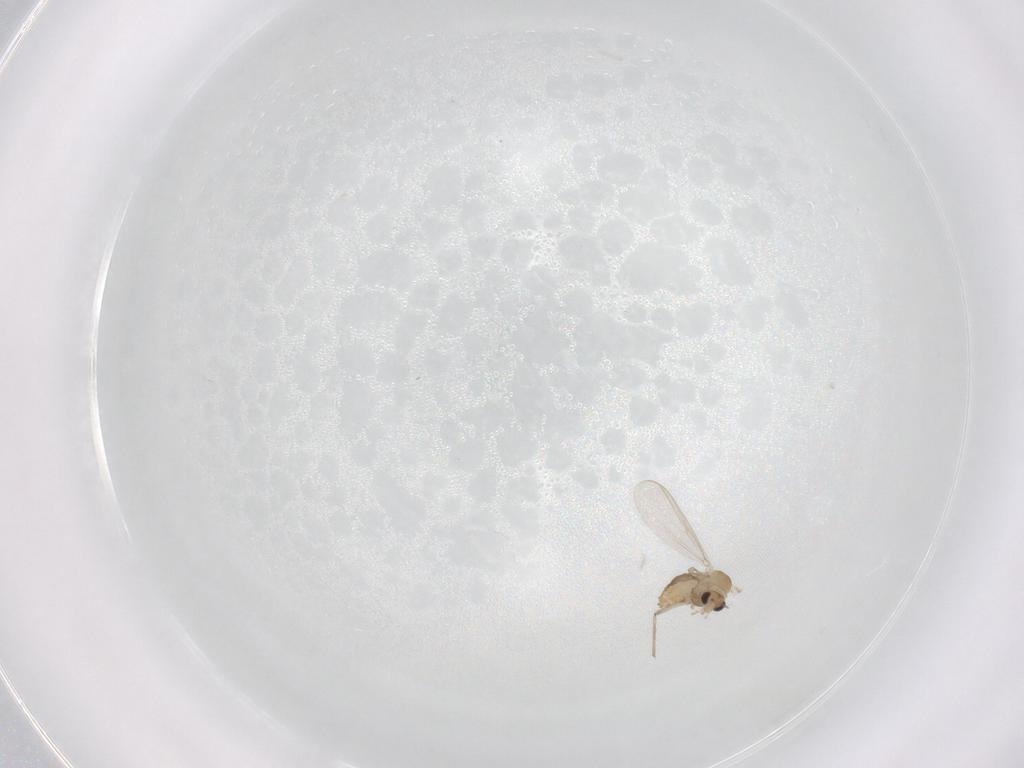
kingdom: Animalia
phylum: Arthropoda
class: Insecta
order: Diptera
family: Chironomidae
